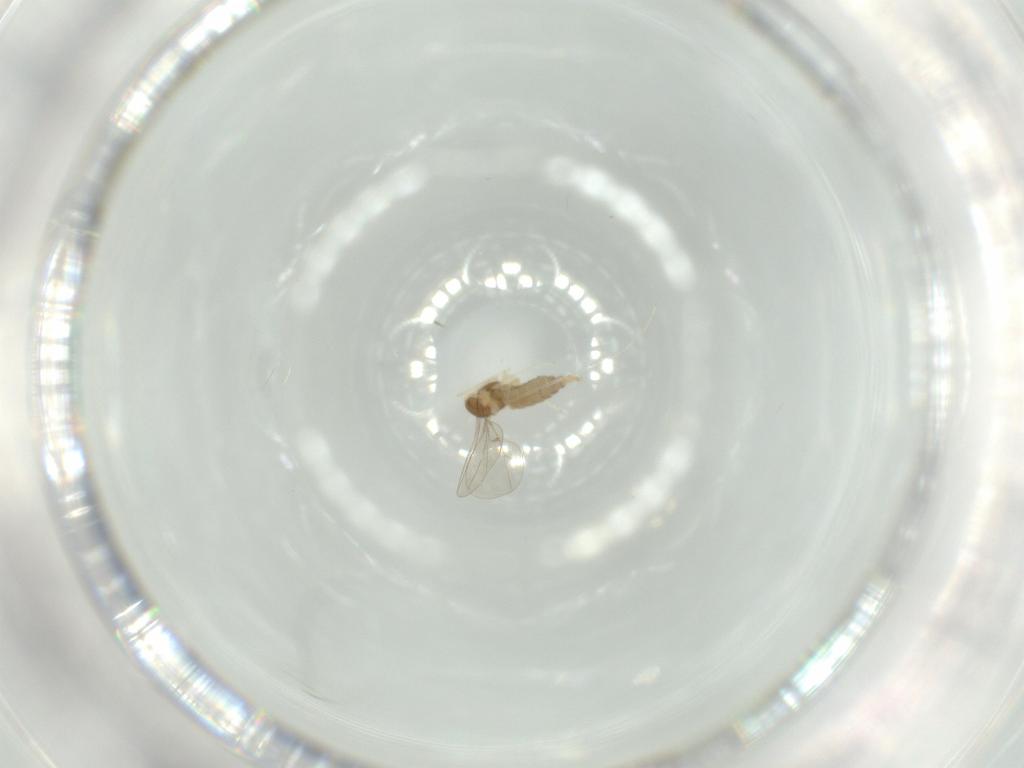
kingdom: Animalia
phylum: Arthropoda
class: Insecta
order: Diptera
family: Cecidomyiidae
